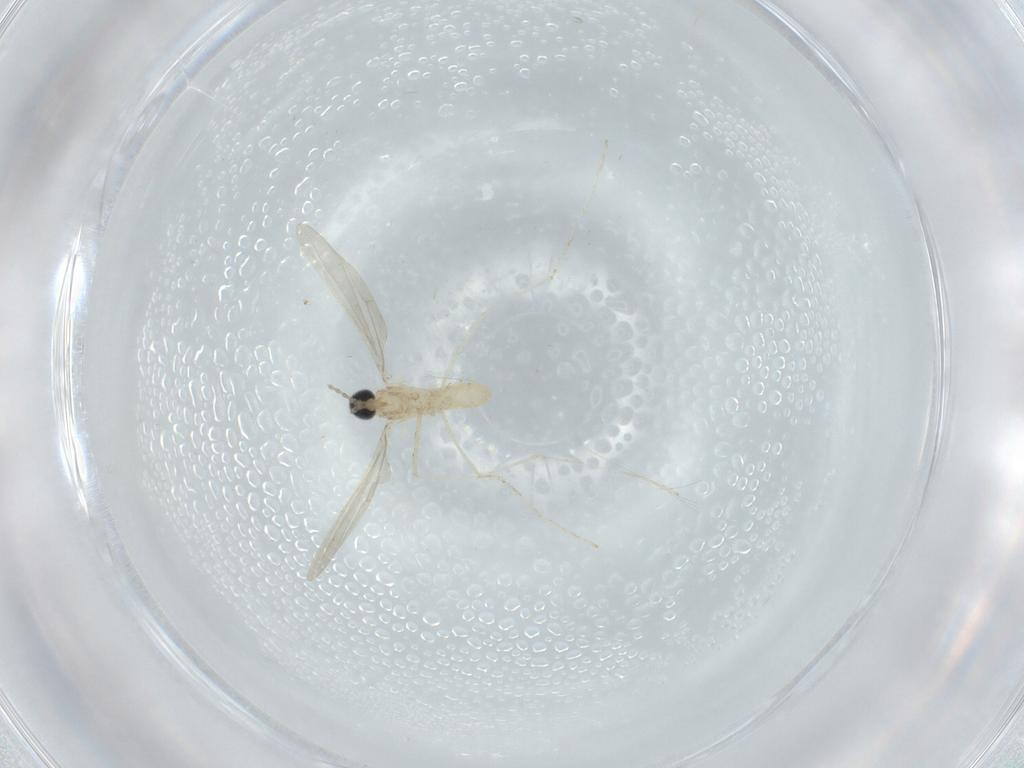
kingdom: Animalia
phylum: Arthropoda
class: Insecta
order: Diptera
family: Cecidomyiidae
